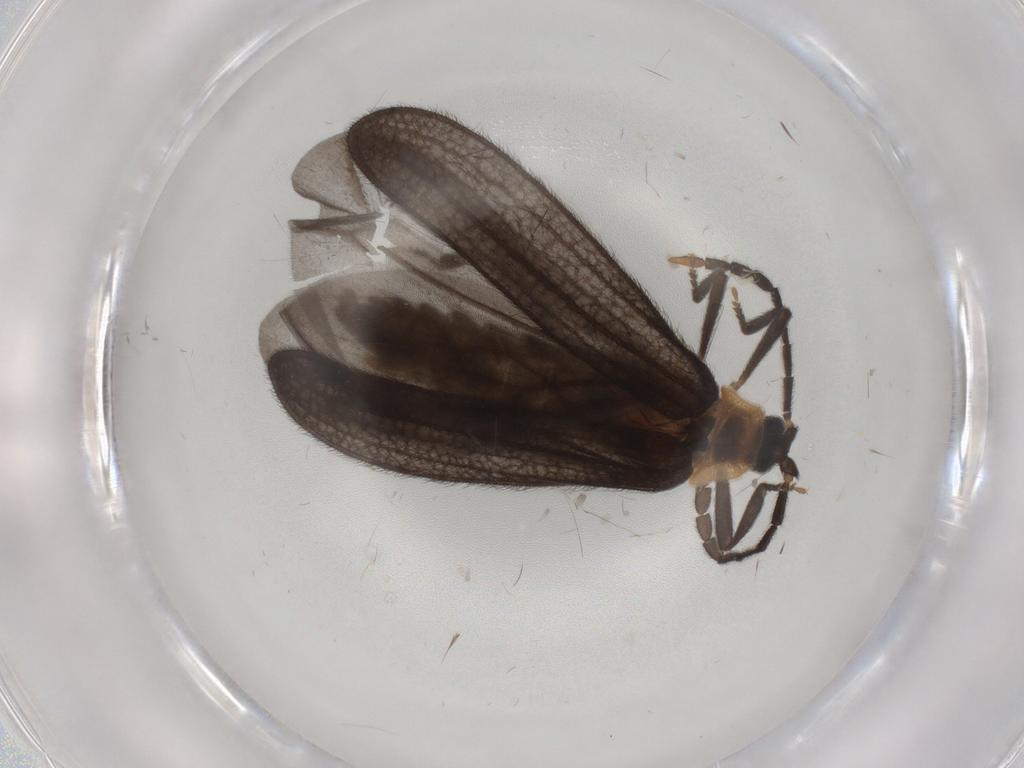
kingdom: Animalia
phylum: Arthropoda
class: Insecta
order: Coleoptera
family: Lycidae
